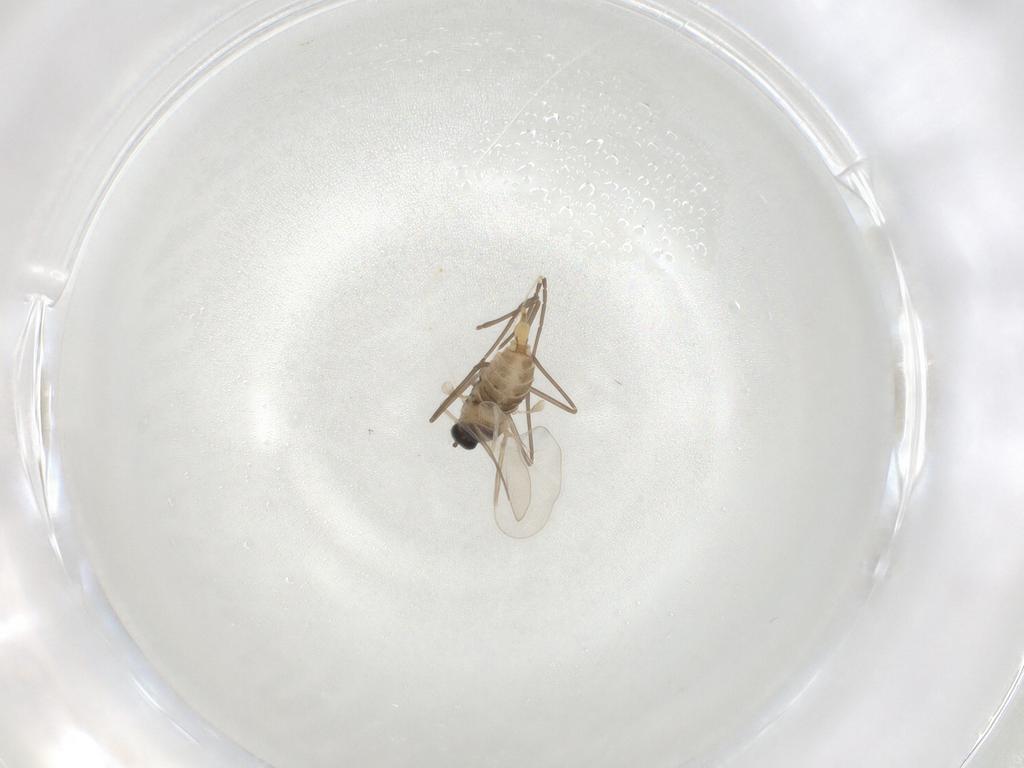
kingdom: Animalia
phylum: Arthropoda
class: Insecta
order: Diptera
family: Cecidomyiidae
